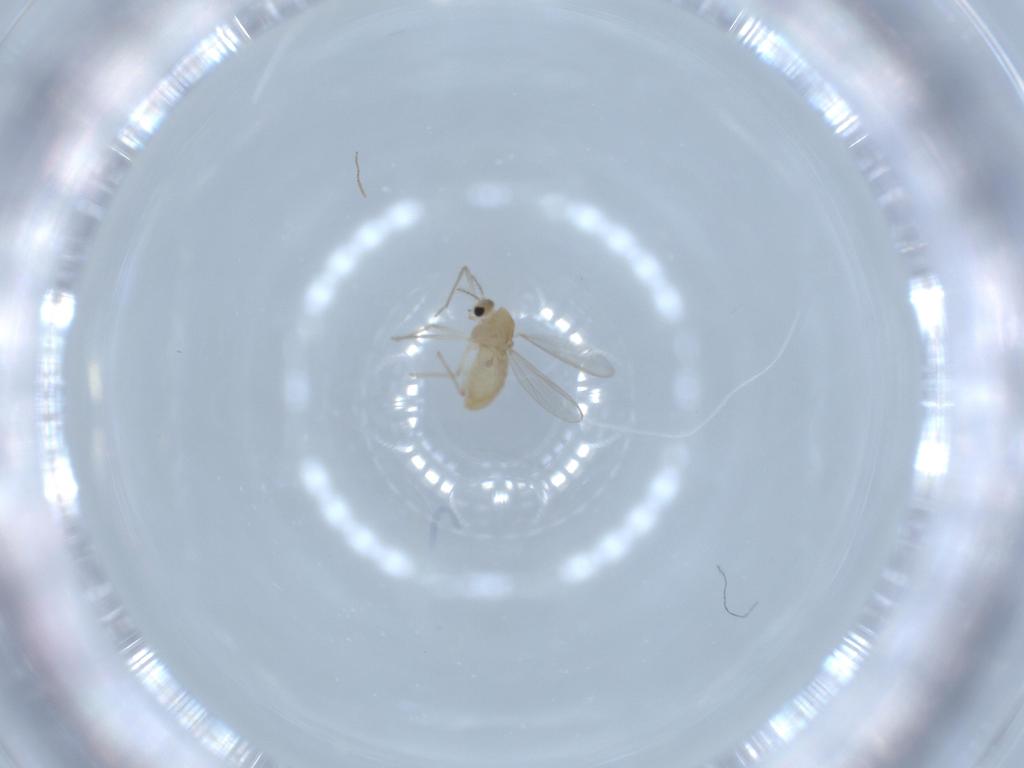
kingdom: Animalia
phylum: Arthropoda
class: Insecta
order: Diptera
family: Chironomidae
